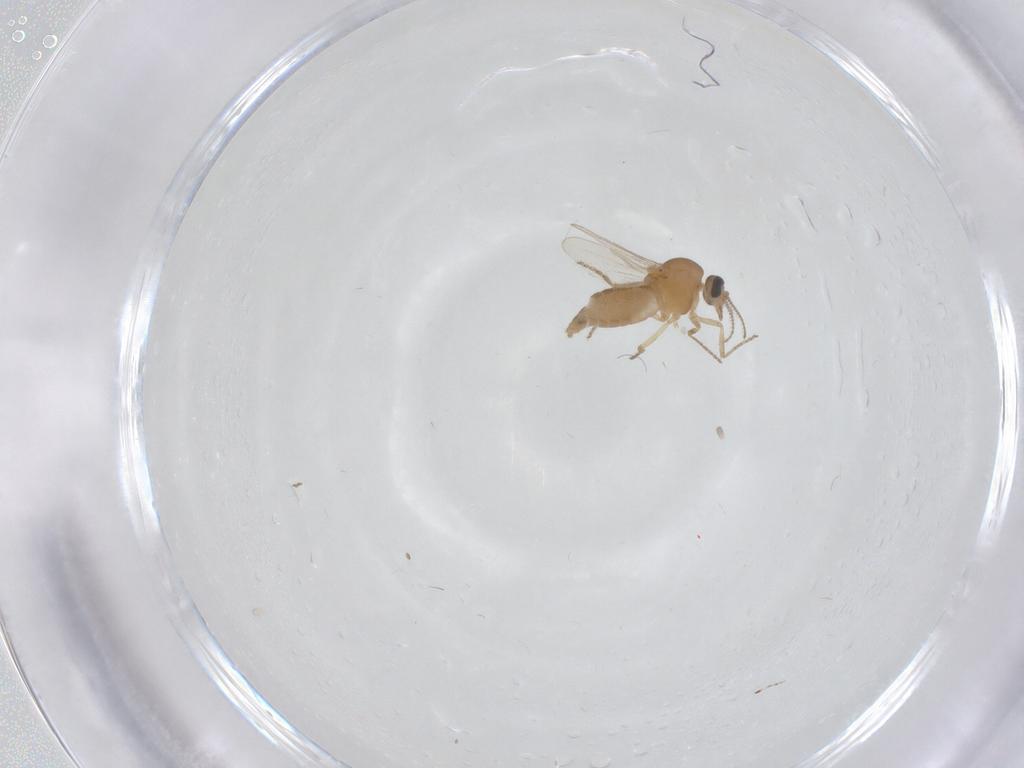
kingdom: Animalia
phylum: Arthropoda
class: Insecta
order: Diptera
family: Ceratopogonidae
